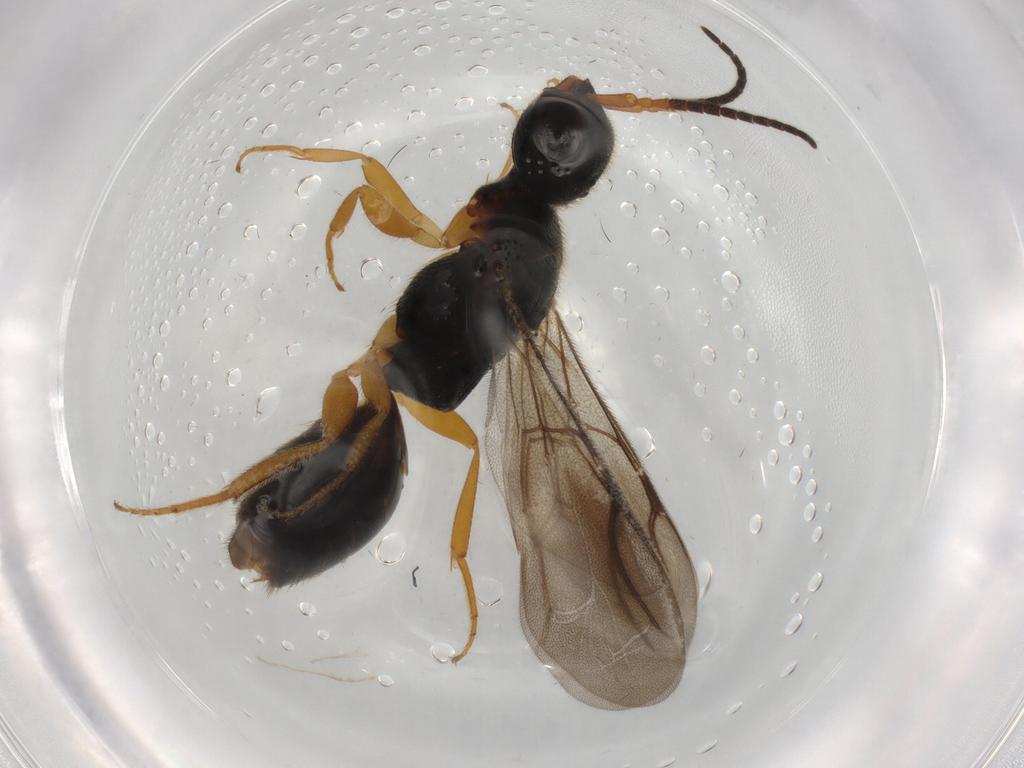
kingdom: Animalia
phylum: Arthropoda
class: Insecta
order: Hymenoptera
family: Bethylidae
